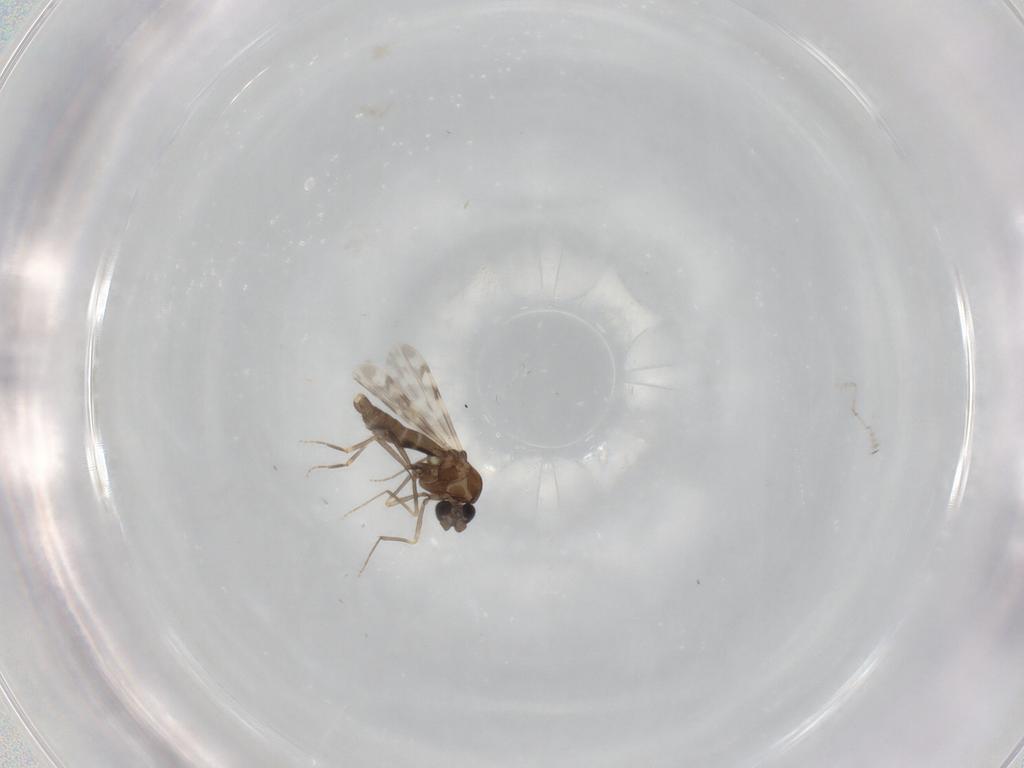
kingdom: Animalia
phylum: Arthropoda
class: Insecta
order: Diptera
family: Ceratopogonidae
